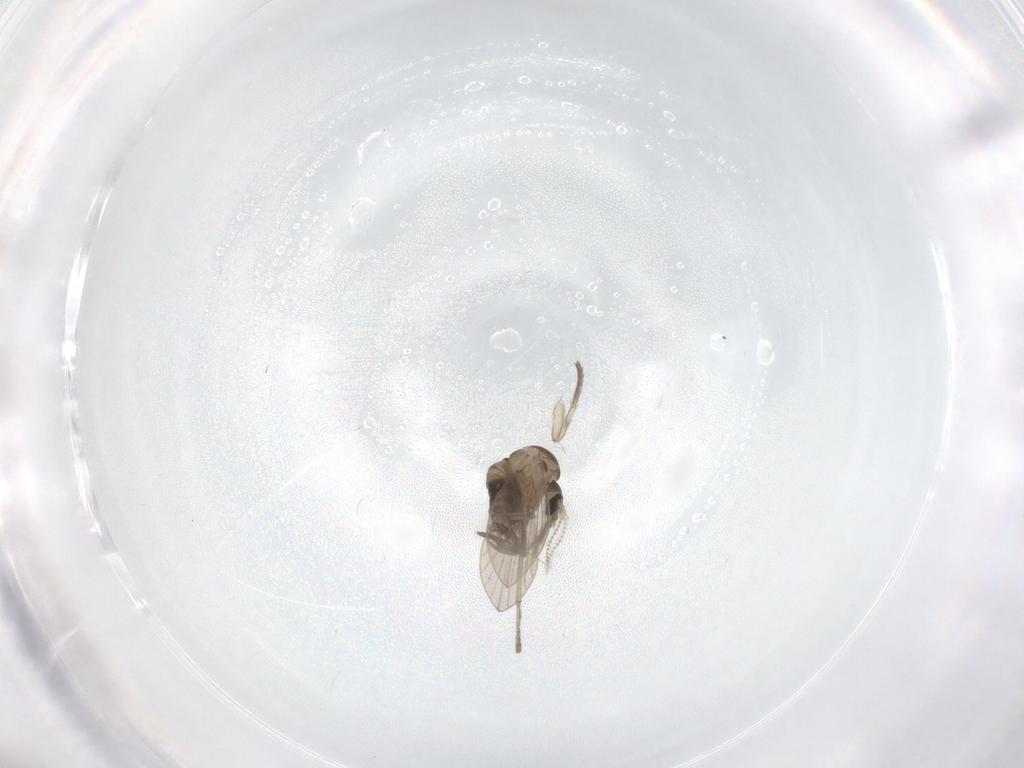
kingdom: Animalia
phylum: Arthropoda
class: Insecta
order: Diptera
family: Psychodidae
